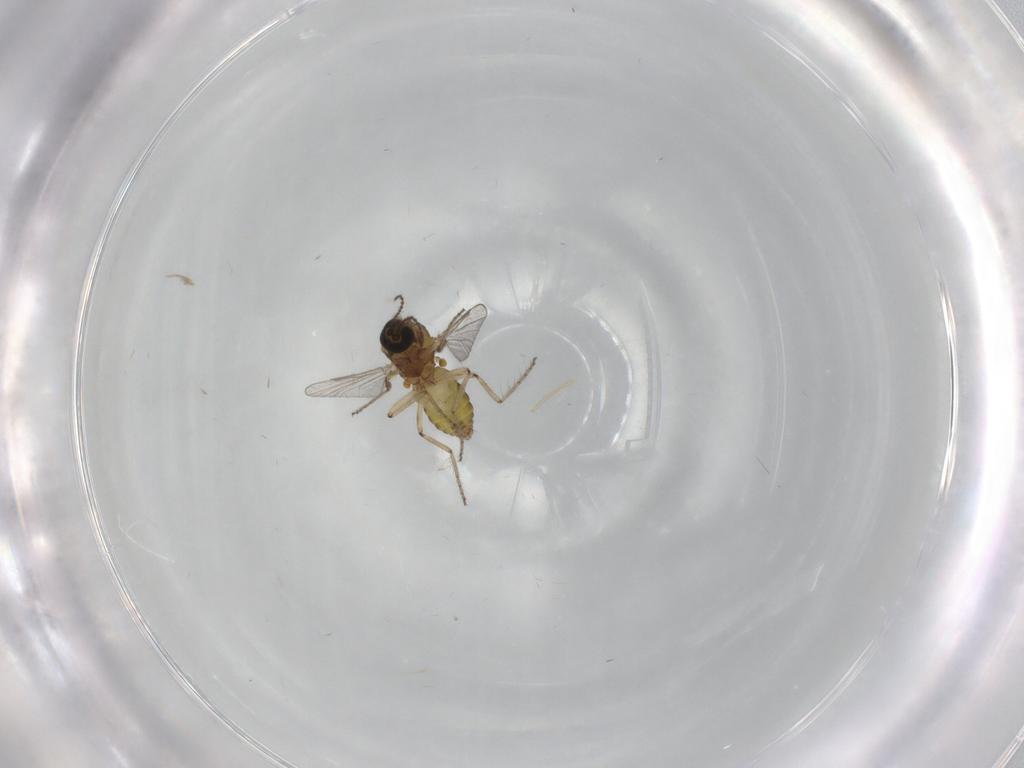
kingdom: Animalia
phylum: Arthropoda
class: Insecta
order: Diptera
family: Ceratopogonidae
